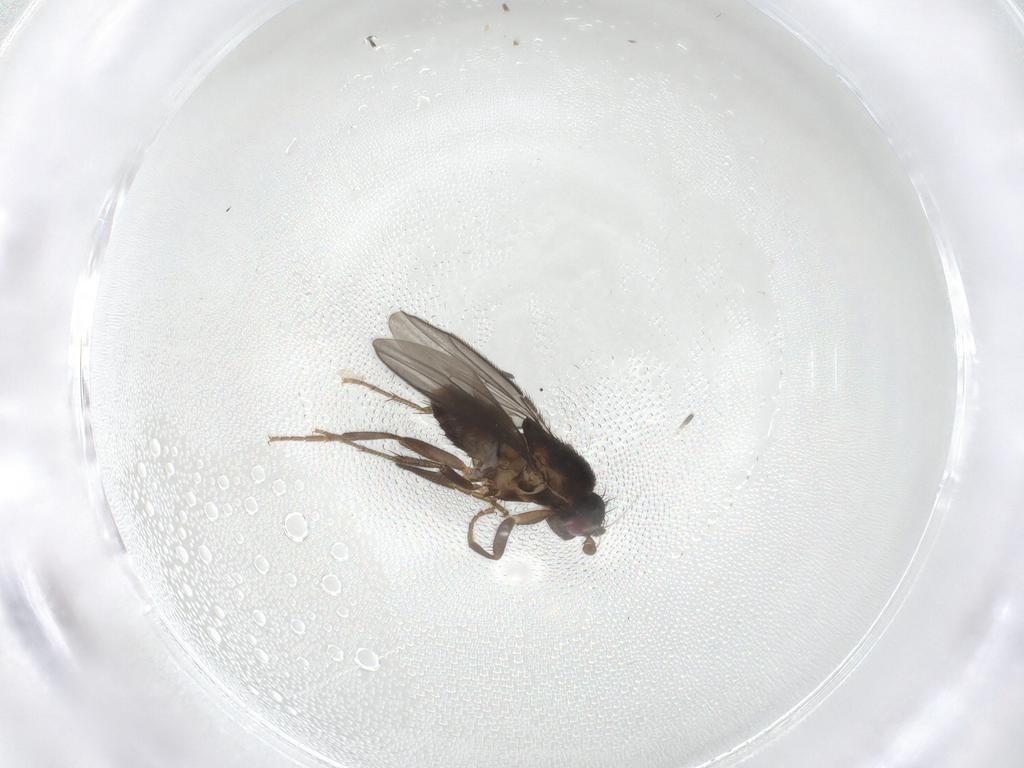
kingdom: Animalia
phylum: Arthropoda
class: Insecta
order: Diptera
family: Sphaeroceridae
